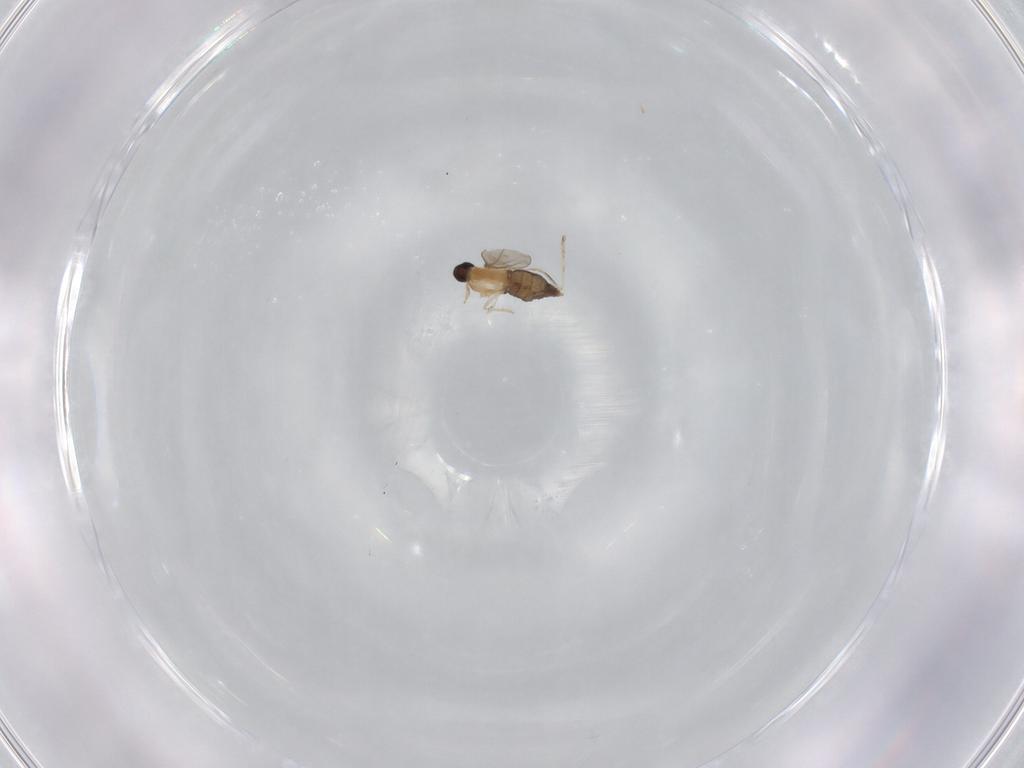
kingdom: Animalia
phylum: Arthropoda
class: Insecta
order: Diptera
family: Cecidomyiidae
